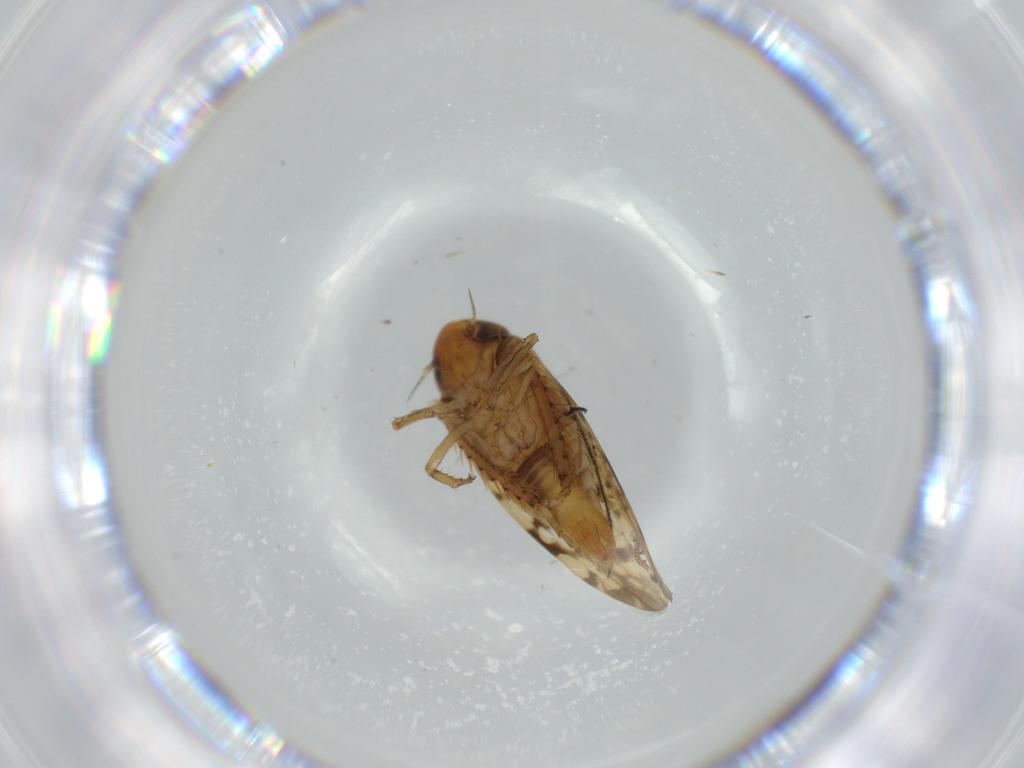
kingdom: Animalia
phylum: Arthropoda
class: Insecta
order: Hemiptera
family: Cicadellidae
